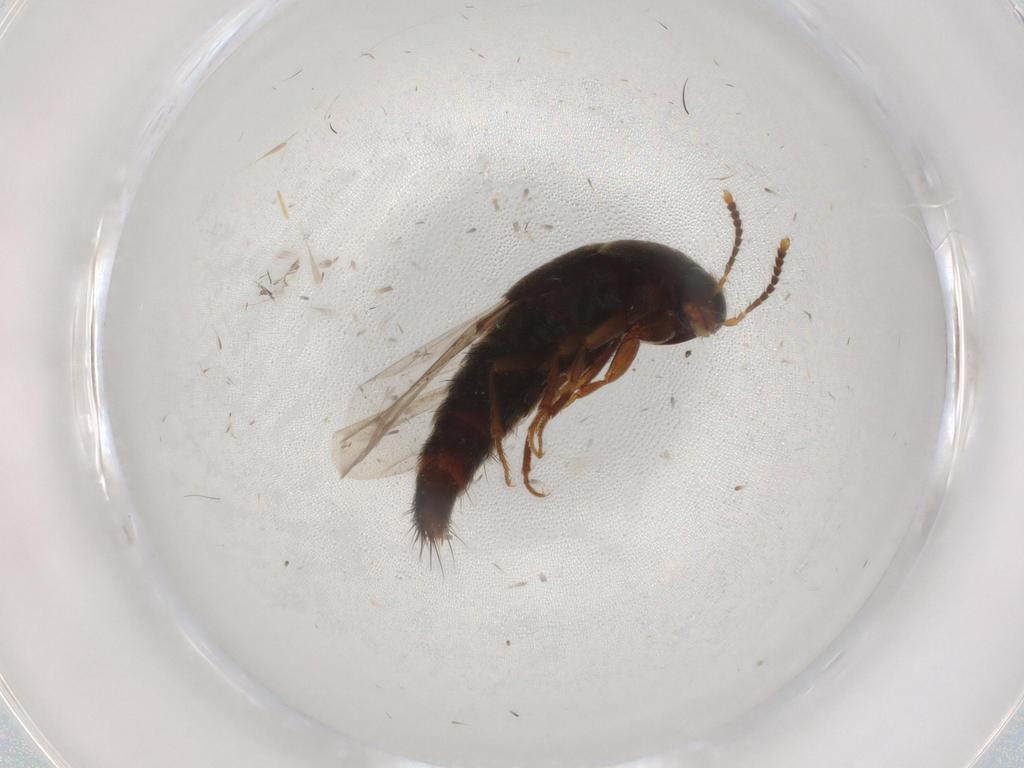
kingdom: Animalia
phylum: Arthropoda
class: Insecta
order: Coleoptera
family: Staphylinidae
